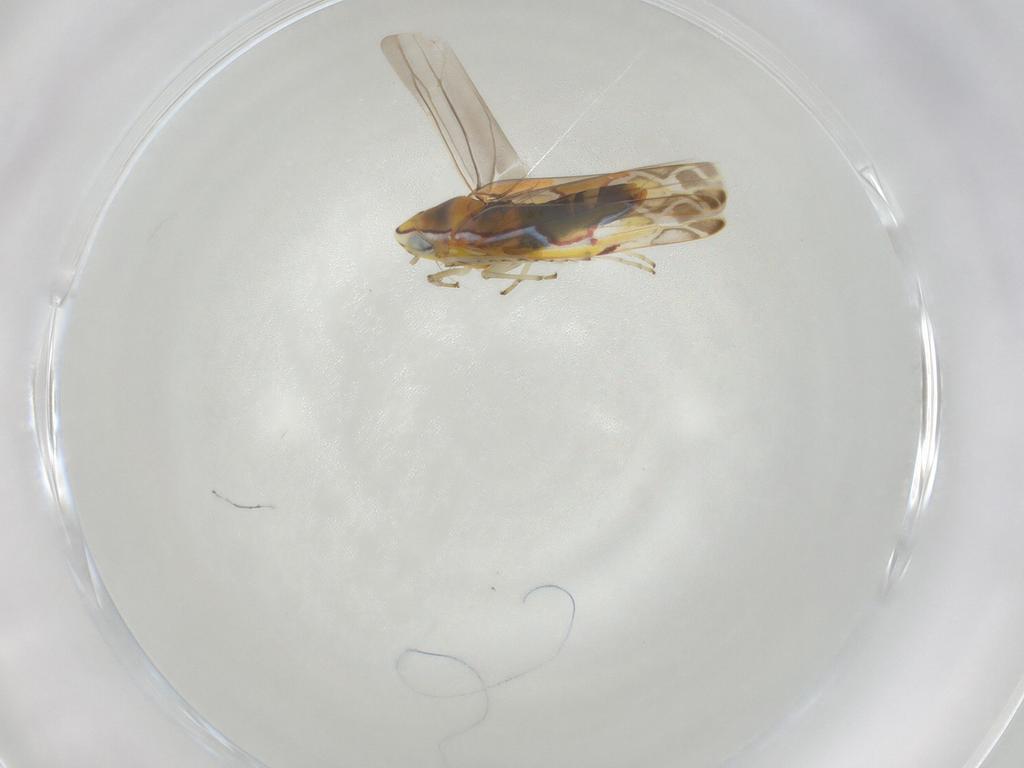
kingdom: Animalia
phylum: Arthropoda
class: Insecta
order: Hemiptera
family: Cicadellidae
